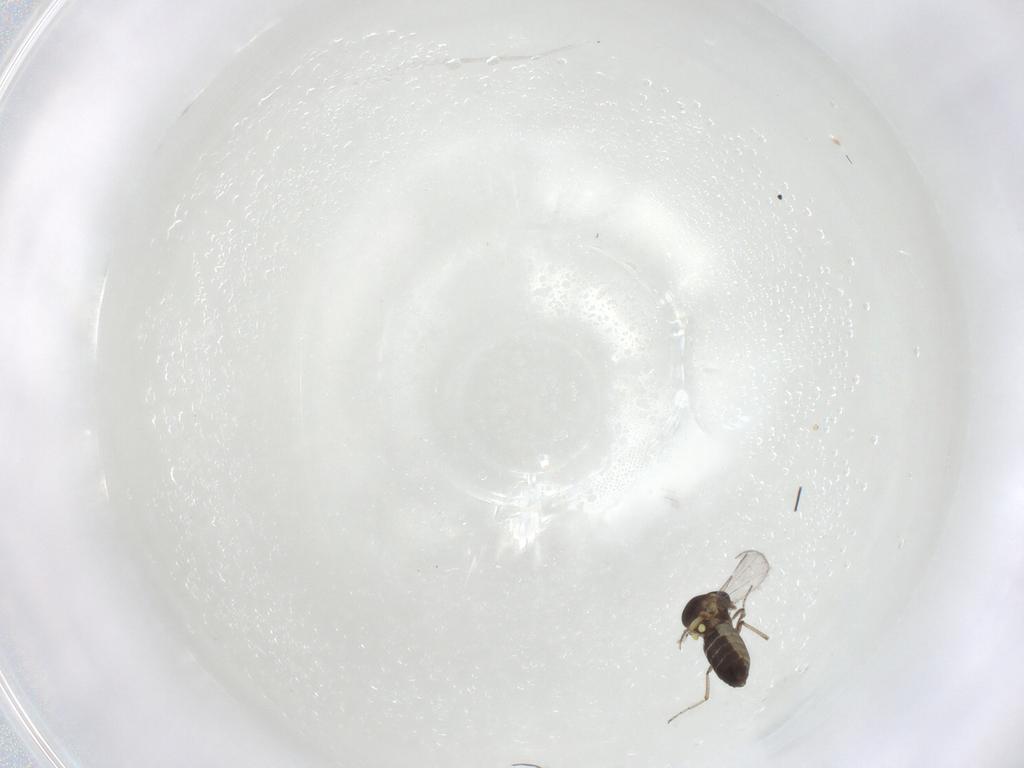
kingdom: Animalia
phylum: Arthropoda
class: Insecta
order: Diptera
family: Ceratopogonidae
